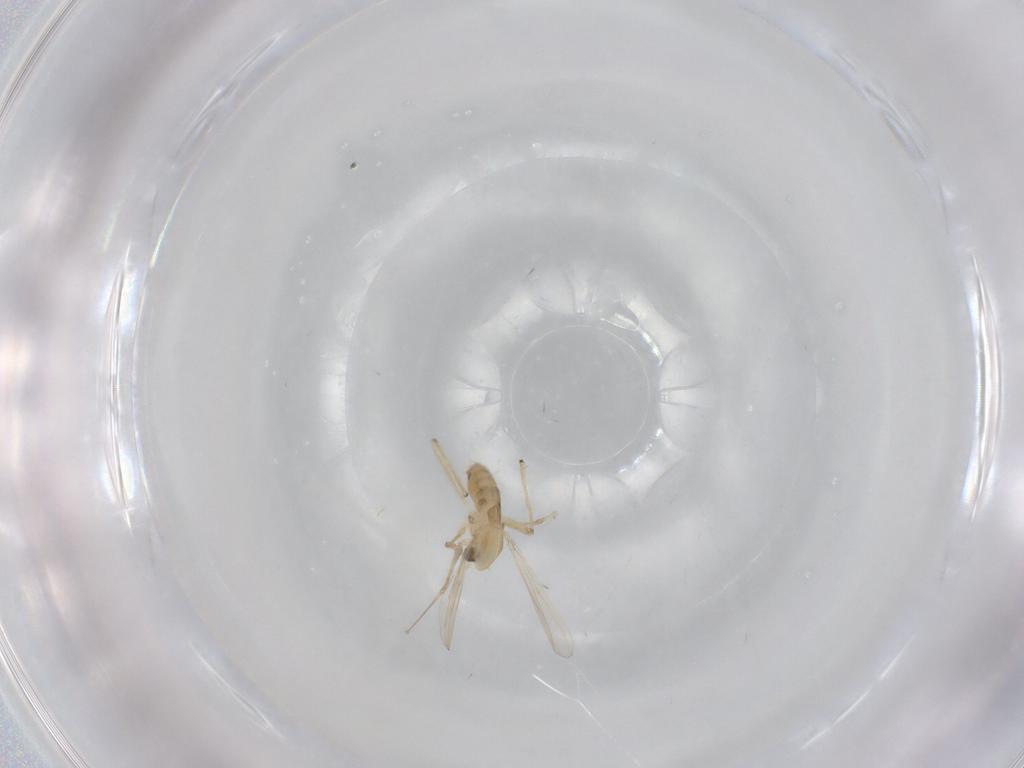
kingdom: Animalia
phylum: Arthropoda
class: Insecta
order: Diptera
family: Chironomidae
